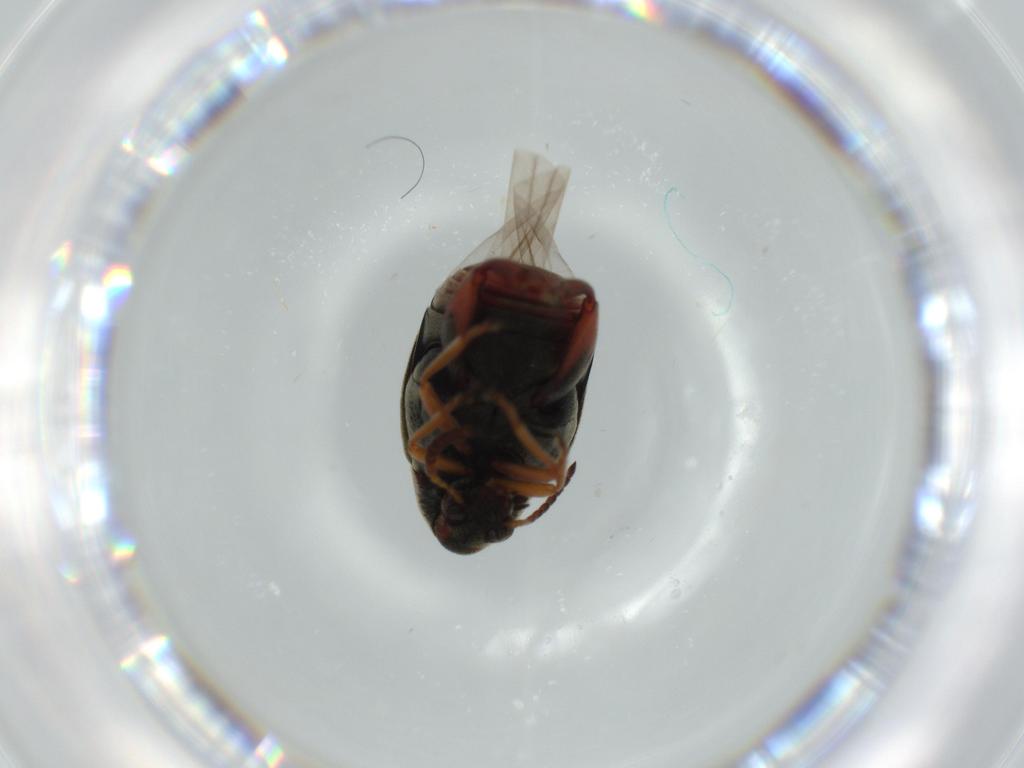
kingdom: Animalia
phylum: Arthropoda
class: Insecta
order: Coleoptera
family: Chrysomelidae
